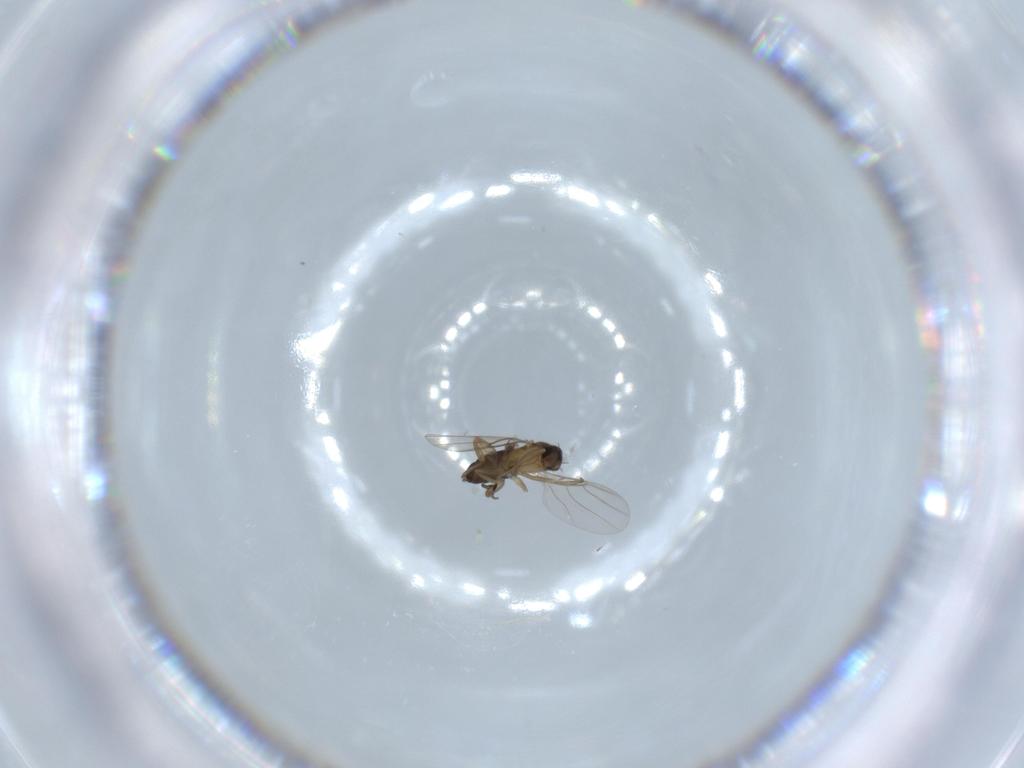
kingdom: Animalia
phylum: Arthropoda
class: Insecta
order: Diptera
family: Phoridae
